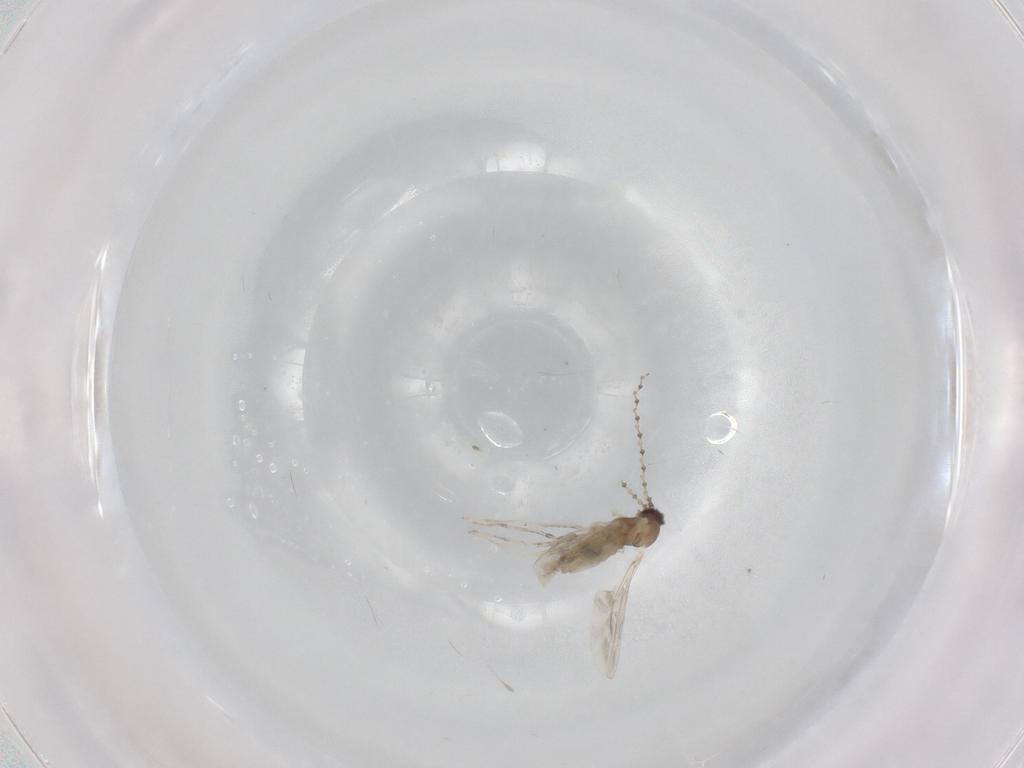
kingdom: Animalia
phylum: Arthropoda
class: Insecta
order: Diptera
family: Cecidomyiidae
